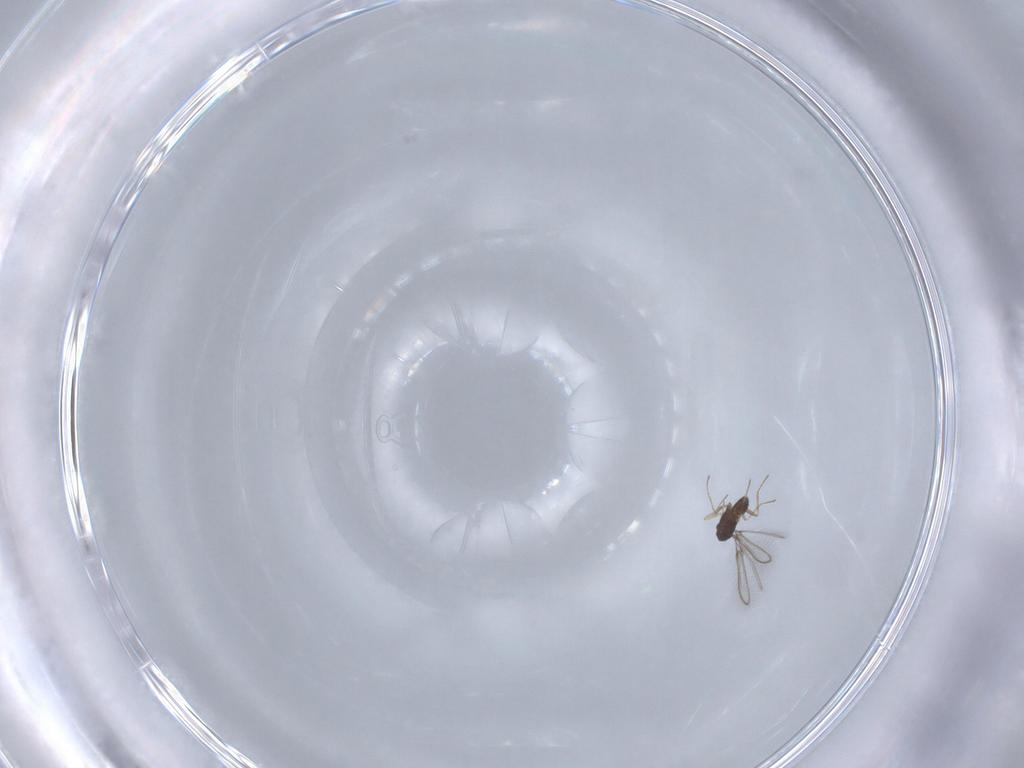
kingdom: Animalia
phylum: Arthropoda
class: Insecta
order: Hymenoptera
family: Mymaridae
